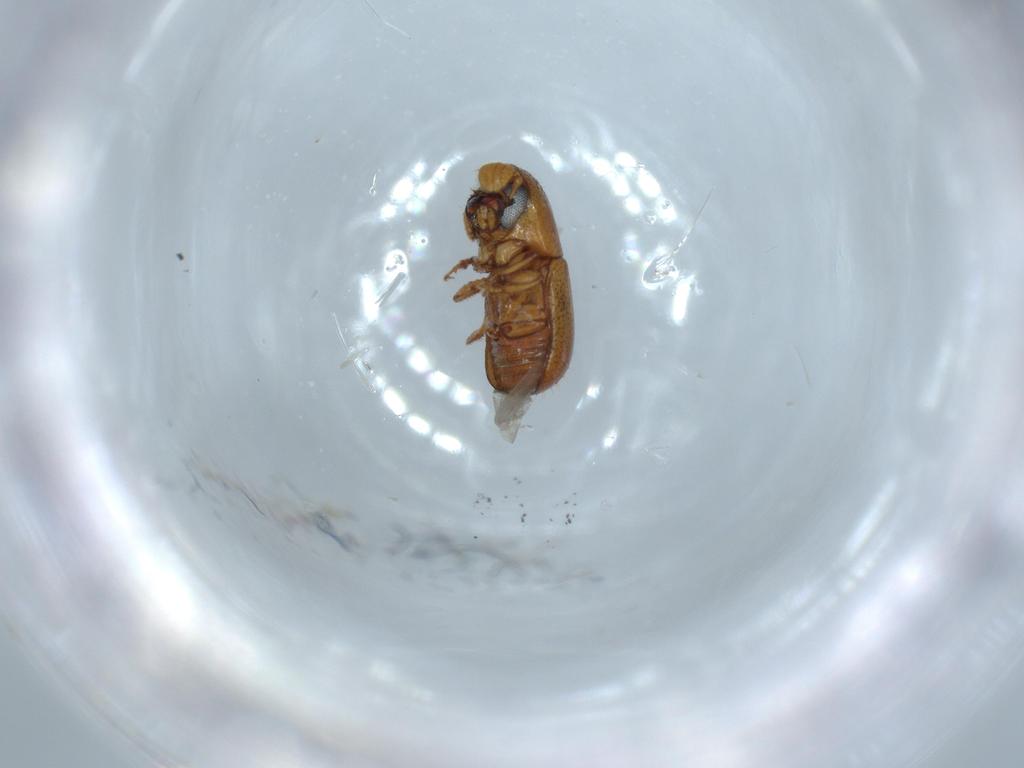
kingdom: Animalia
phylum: Arthropoda
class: Insecta
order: Coleoptera
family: Curculionidae
